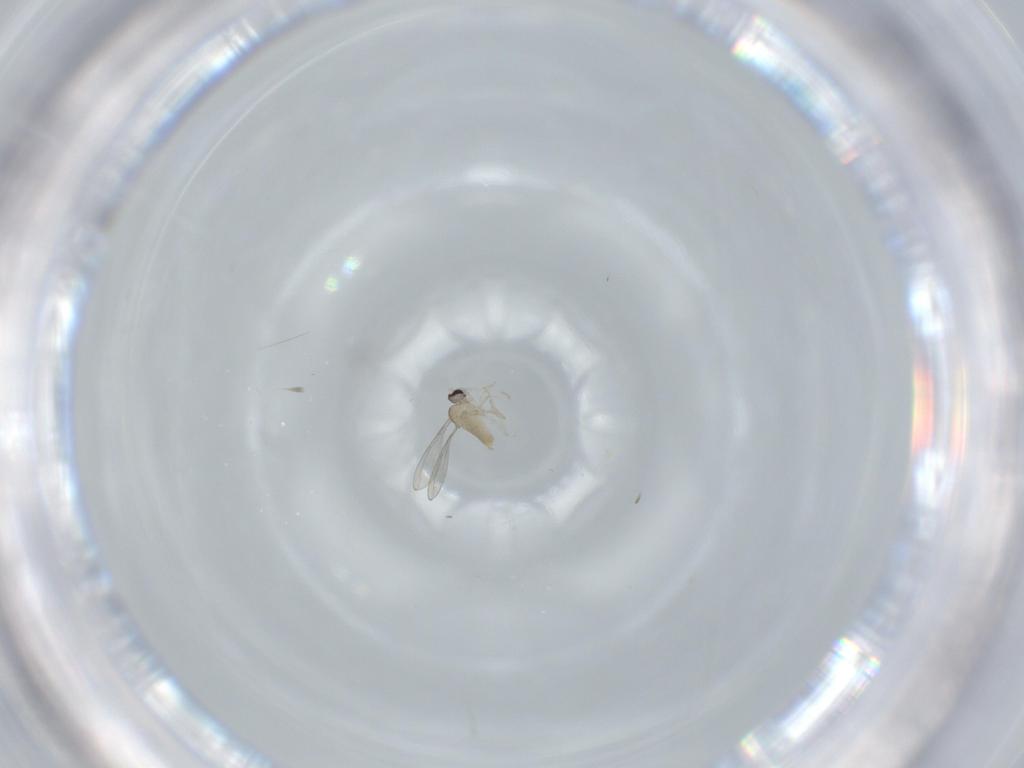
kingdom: Animalia
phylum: Arthropoda
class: Insecta
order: Diptera
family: Cecidomyiidae
